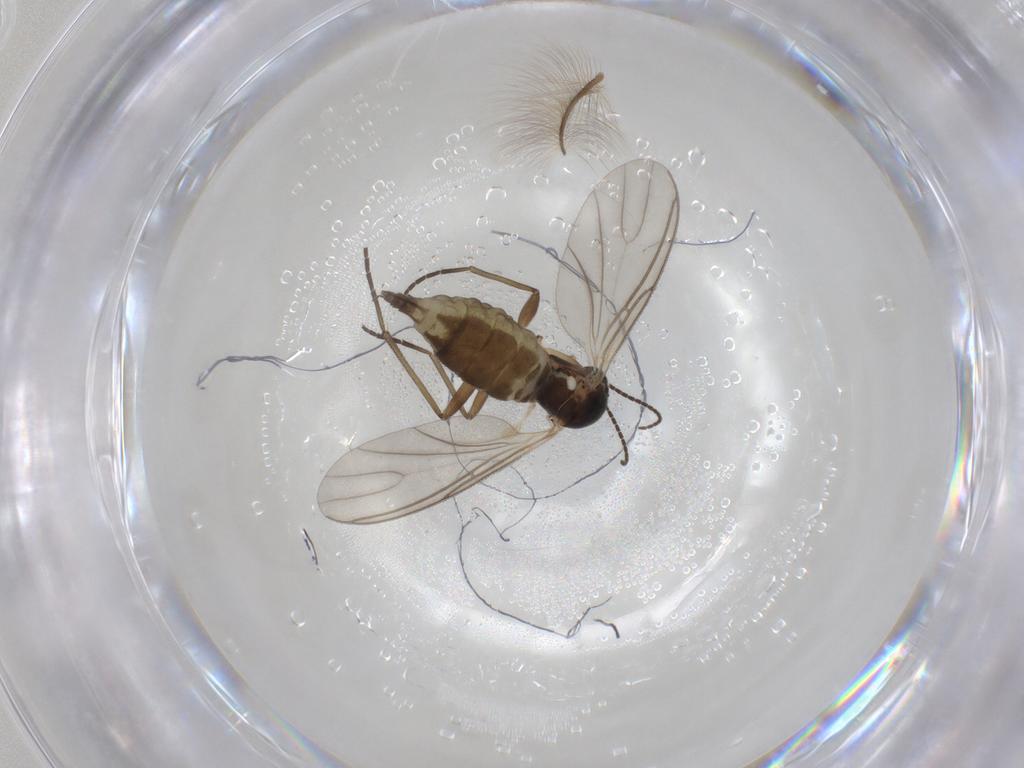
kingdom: Animalia
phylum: Arthropoda
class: Insecta
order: Diptera
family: Chironomidae
